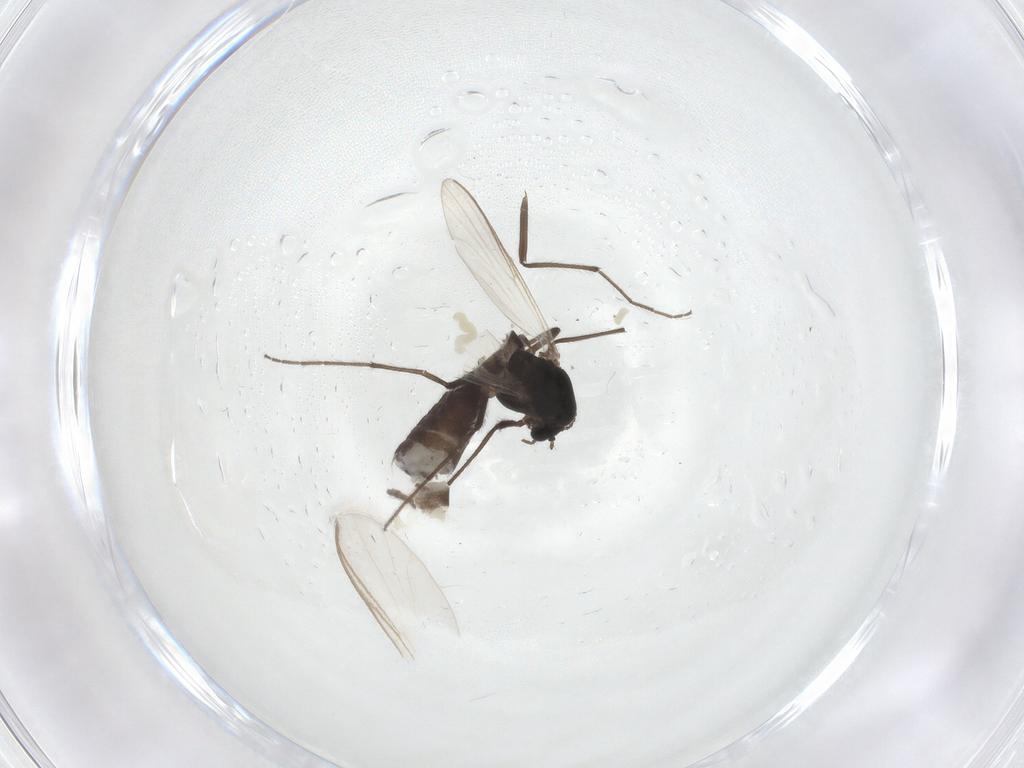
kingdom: Animalia
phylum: Arthropoda
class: Insecta
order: Diptera
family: Chironomidae
